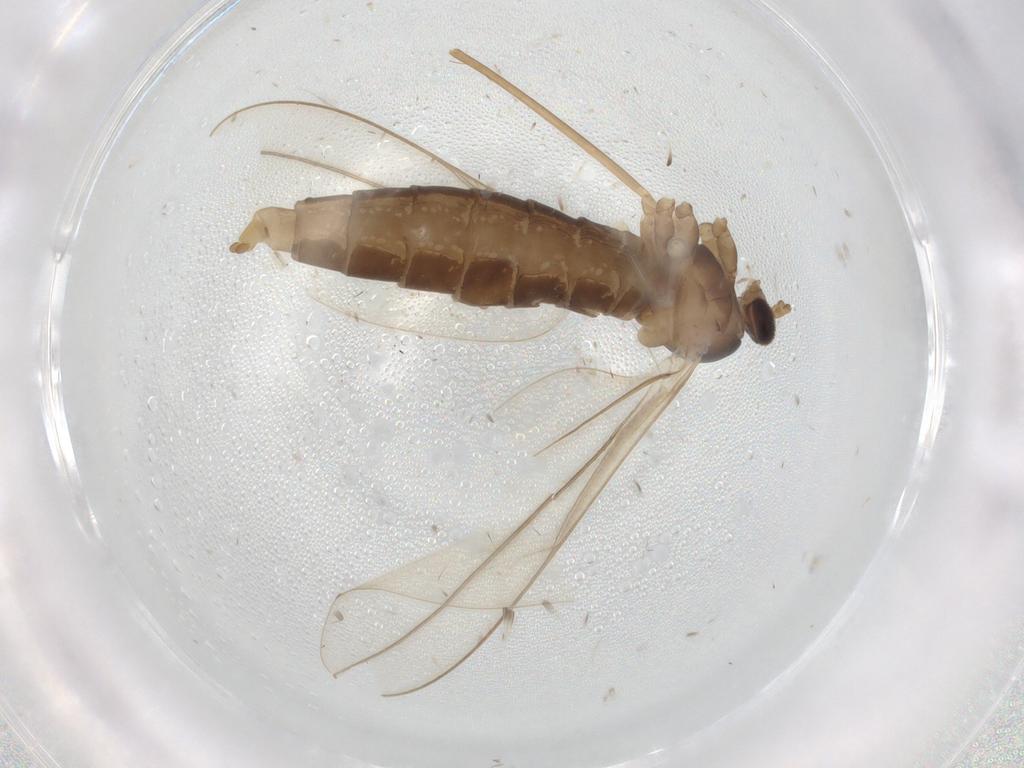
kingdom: Animalia
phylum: Arthropoda
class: Insecta
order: Diptera
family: Cecidomyiidae
